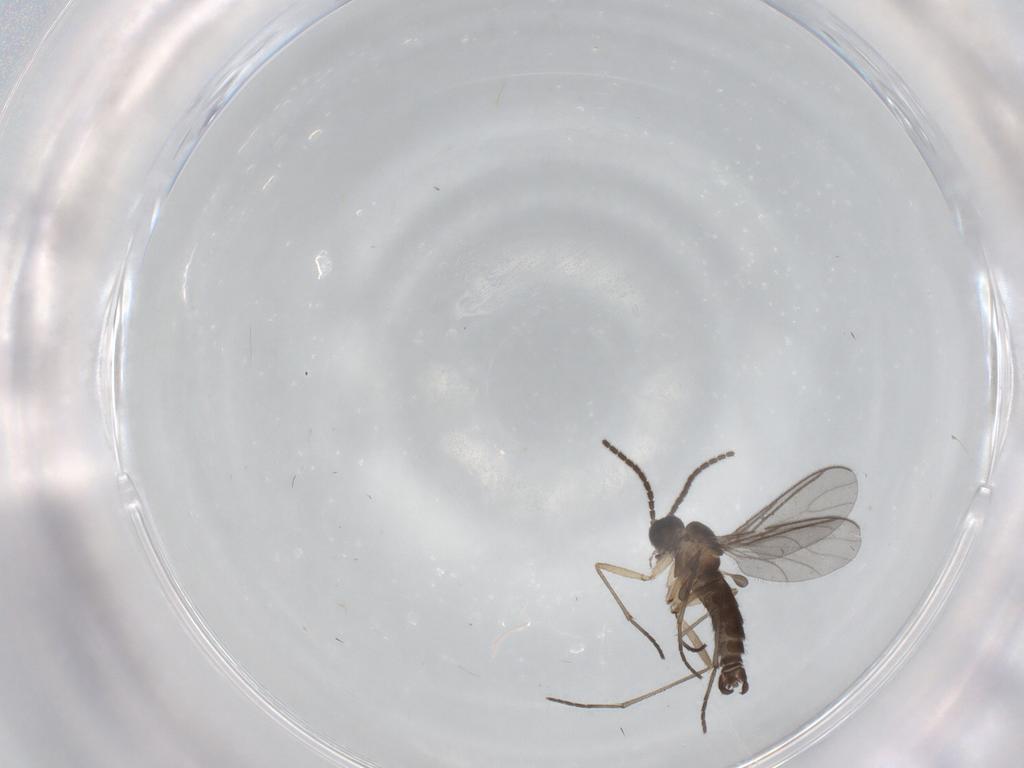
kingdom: Animalia
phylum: Arthropoda
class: Insecta
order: Diptera
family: Sciaridae
